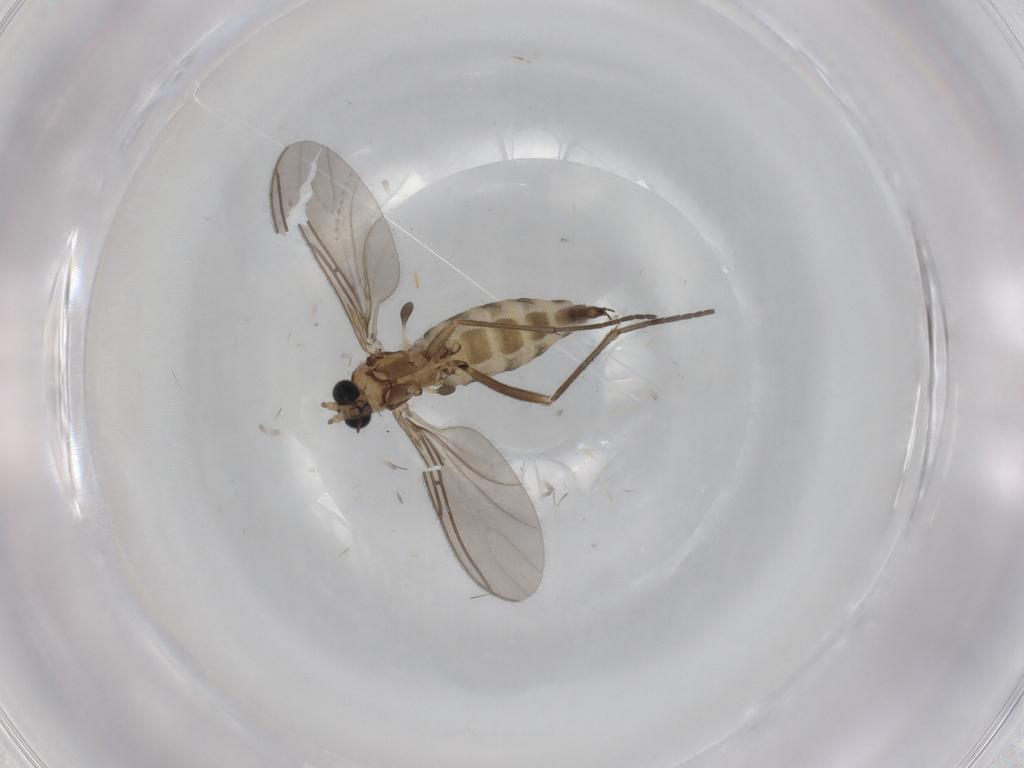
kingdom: Animalia
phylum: Arthropoda
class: Insecta
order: Diptera
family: Sciaridae
